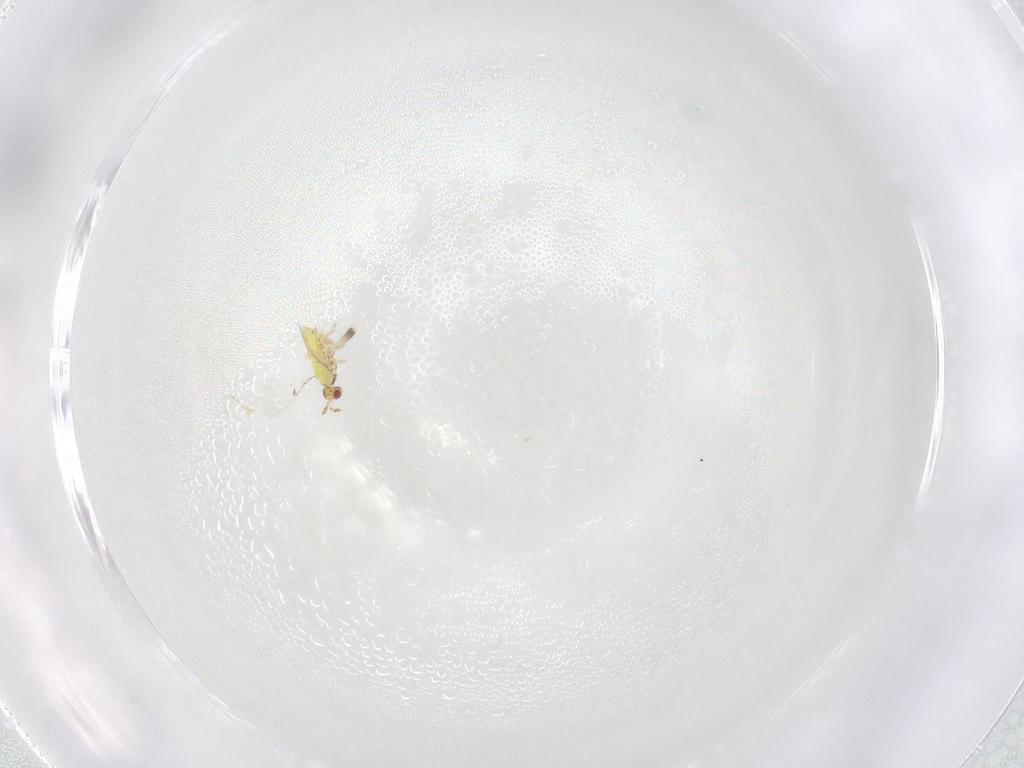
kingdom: Animalia
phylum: Arthropoda
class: Insecta
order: Hymenoptera
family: Trichogrammatidae
